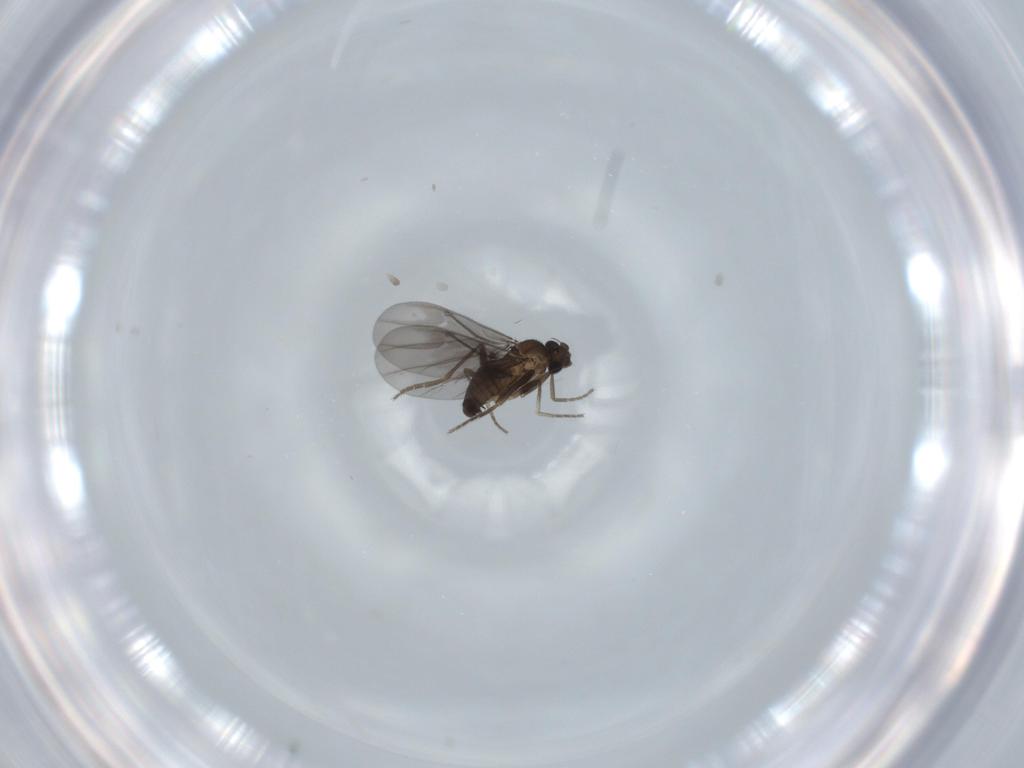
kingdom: Animalia
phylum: Arthropoda
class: Insecta
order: Diptera
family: Phoridae
